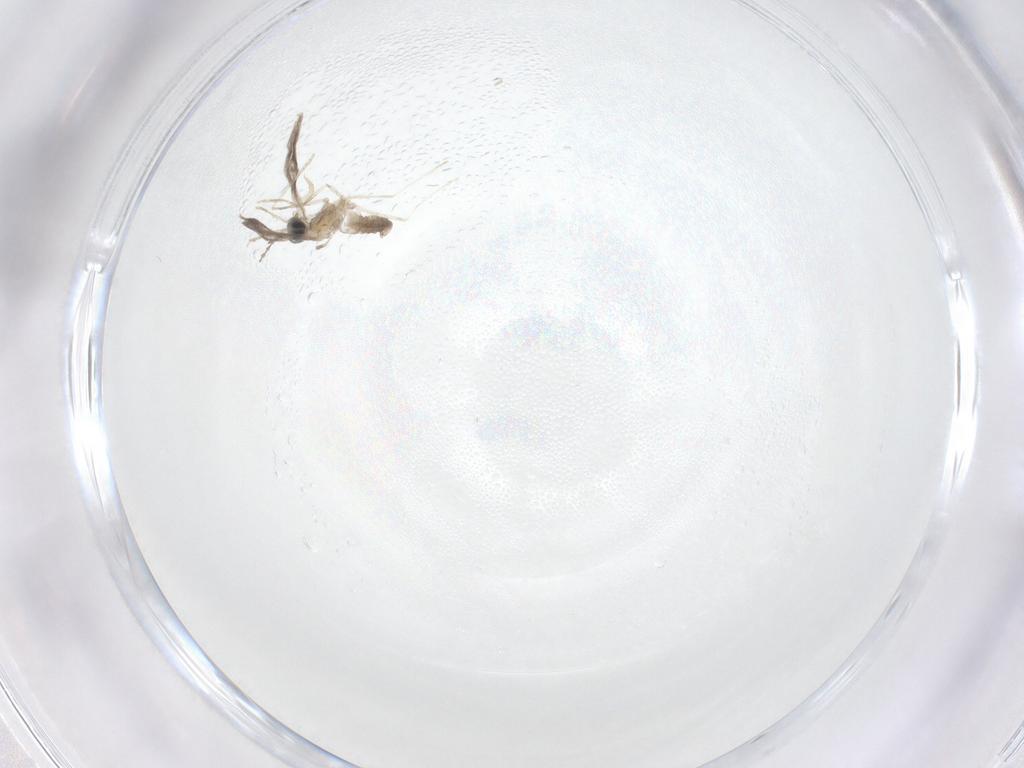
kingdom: Animalia
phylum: Arthropoda
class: Insecta
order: Diptera
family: Cecidomyiidae
